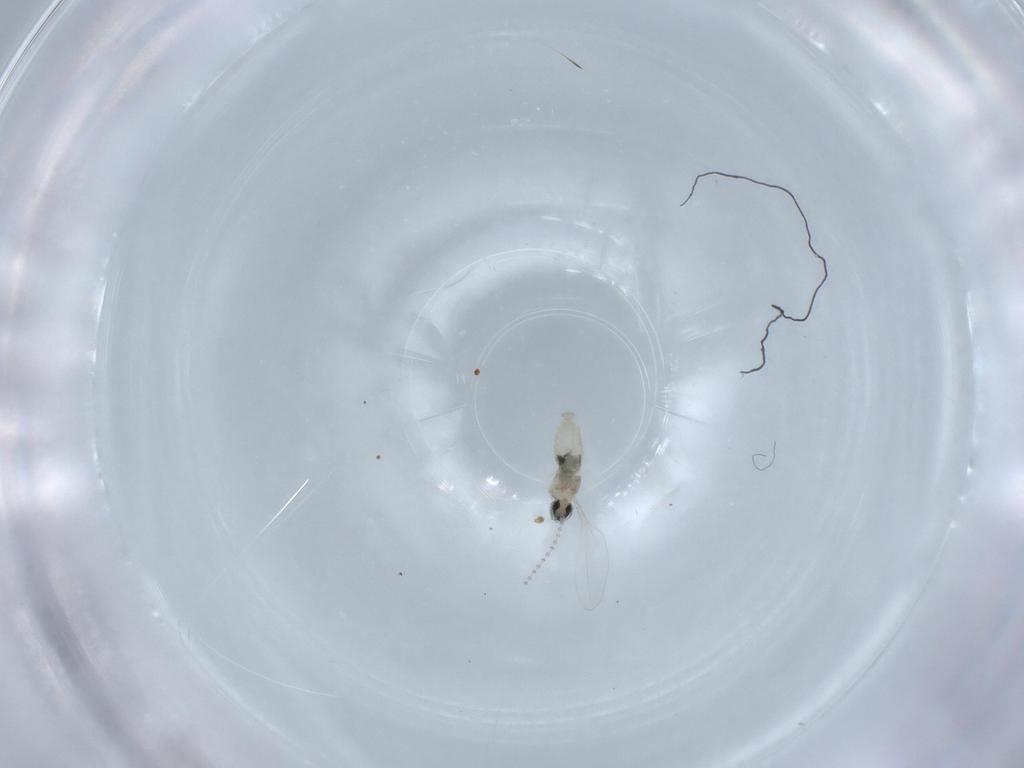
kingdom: Animalia
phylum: Arthropoda
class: Insecta
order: Diptera
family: Cecidomyiidae
